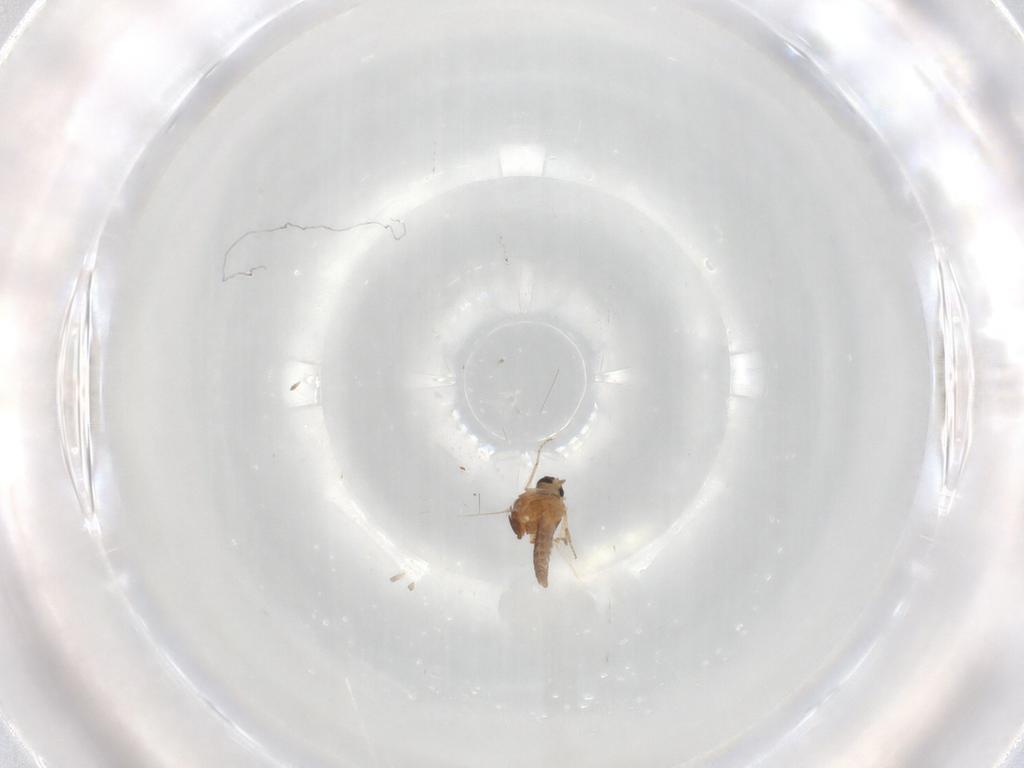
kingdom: Animalia
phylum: Arthropoda
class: Insecta
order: Diptera
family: Ceratopogonidae
